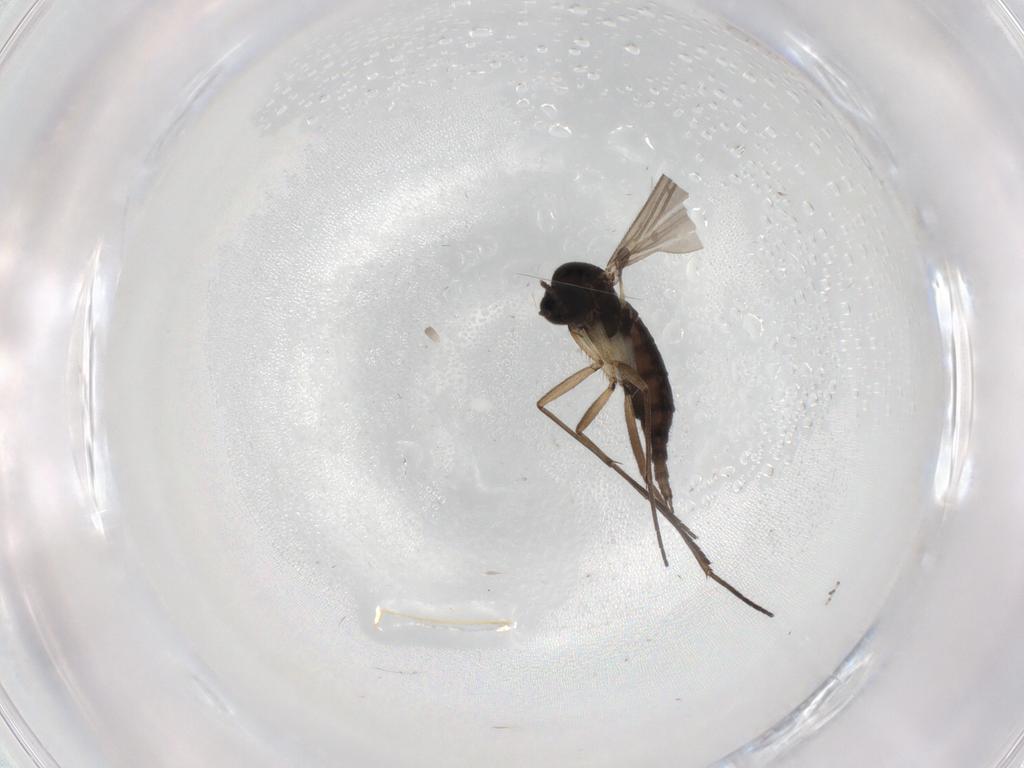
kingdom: Animalia
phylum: Arthropoda
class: Insecta
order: Diptera
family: Sciaridae
